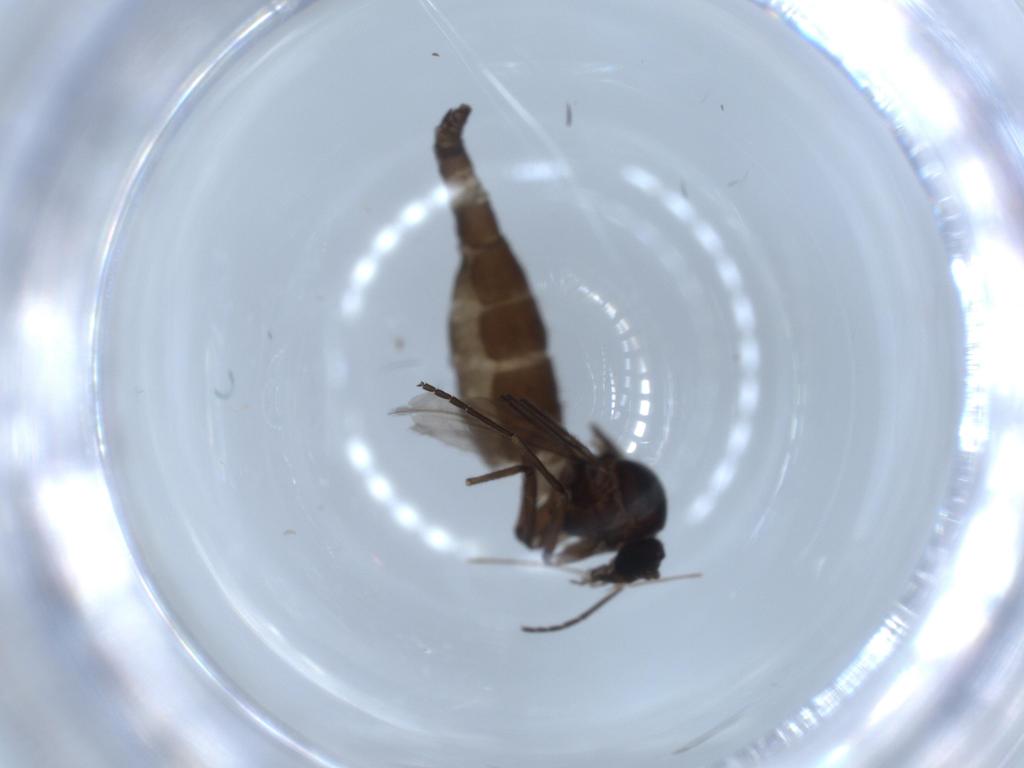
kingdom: Animalia
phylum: Arthropoda
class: Insecta
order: Diptera
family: Sciaridae
